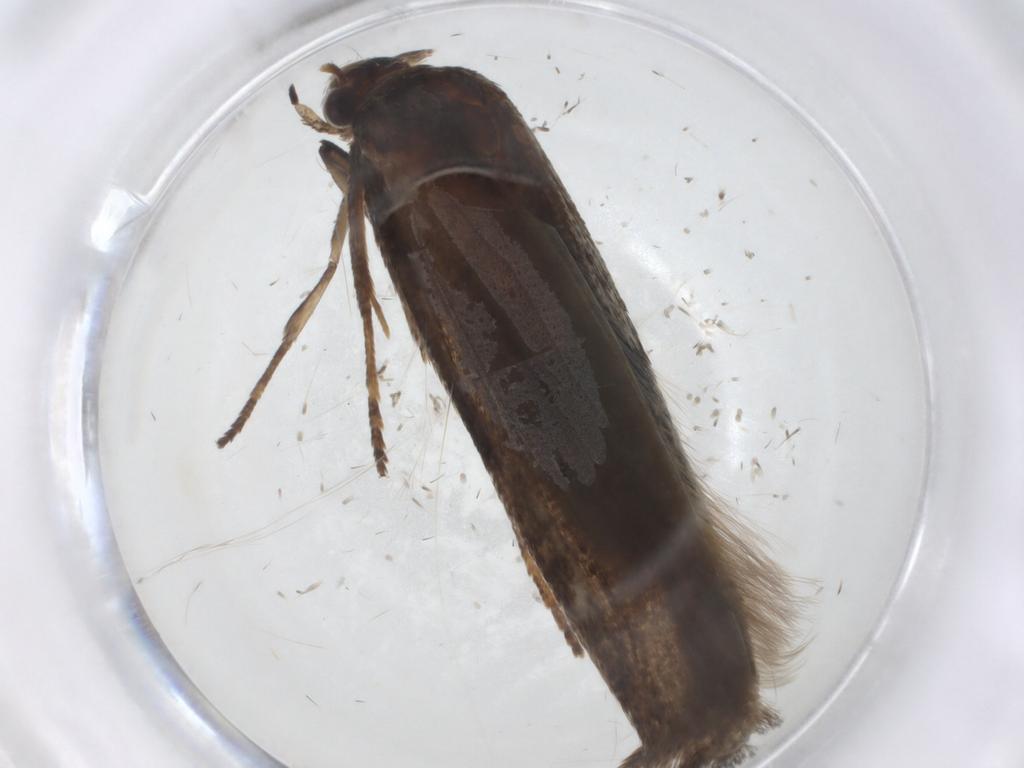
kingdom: Animalia
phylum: Arthropoda
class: Insecta
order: Lepidoptera
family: Blastobasidae
